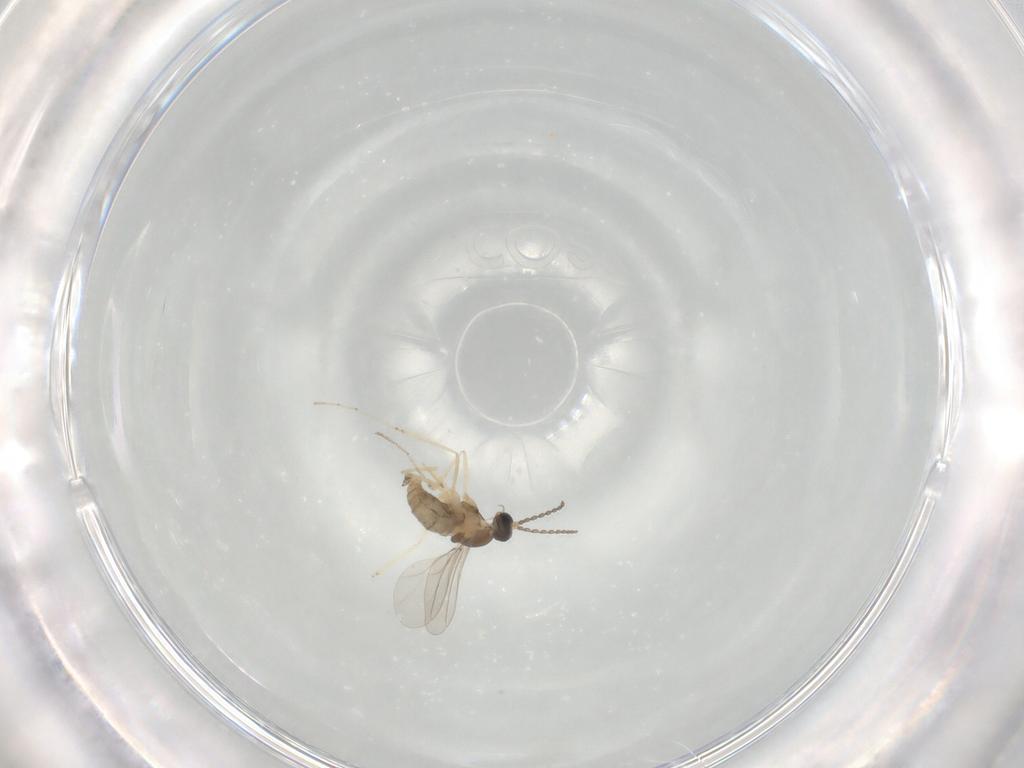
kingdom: Animalia
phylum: Arthropoda
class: Insecta
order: Diptera
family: Cecidomyiidae
